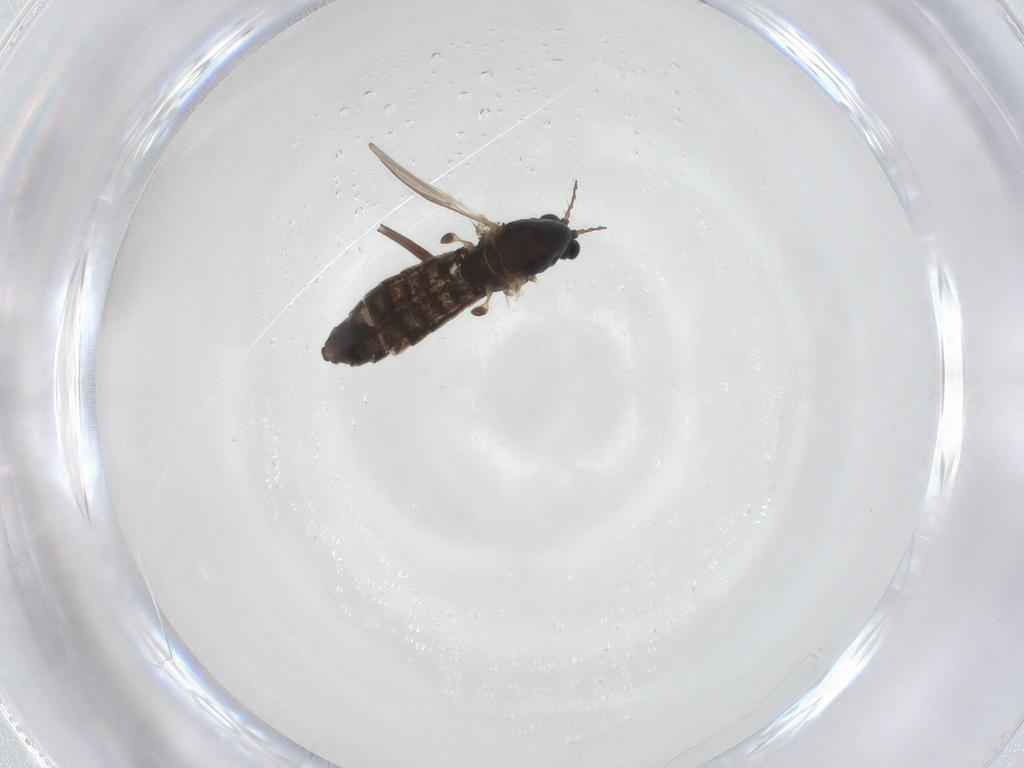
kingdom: Animalia
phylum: Arthropoda
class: Insecta
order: Diptera
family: Chironomidae
